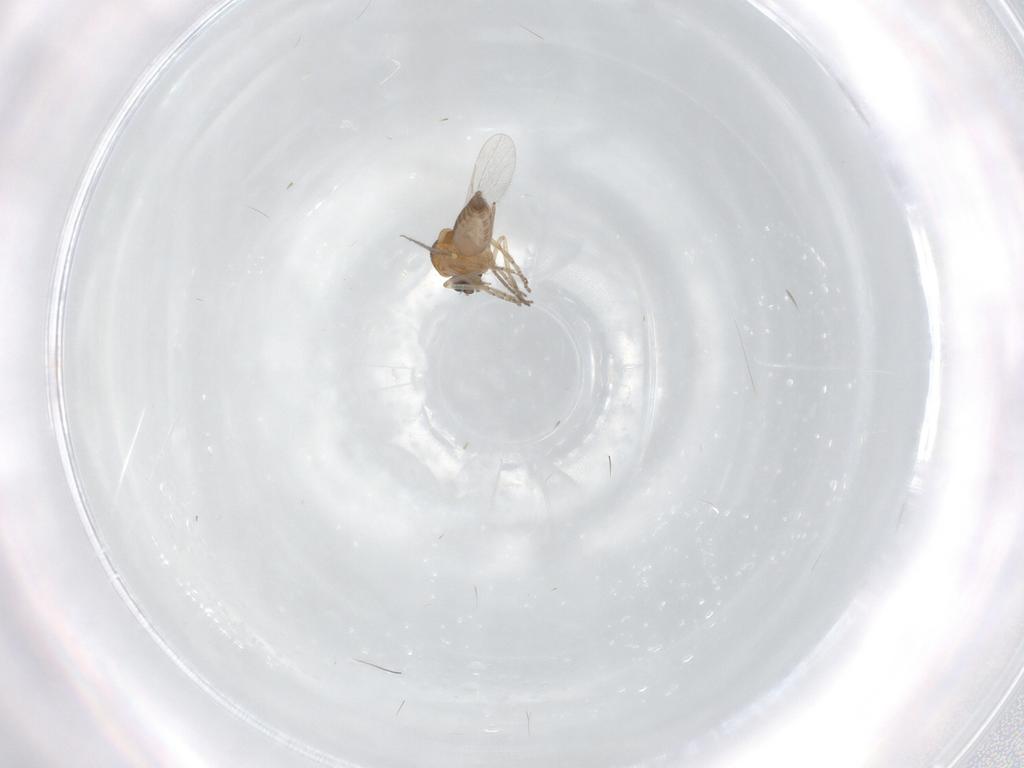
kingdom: Animalia
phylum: Arthropoda
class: Insecta
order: Diptera
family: Chironomidae
